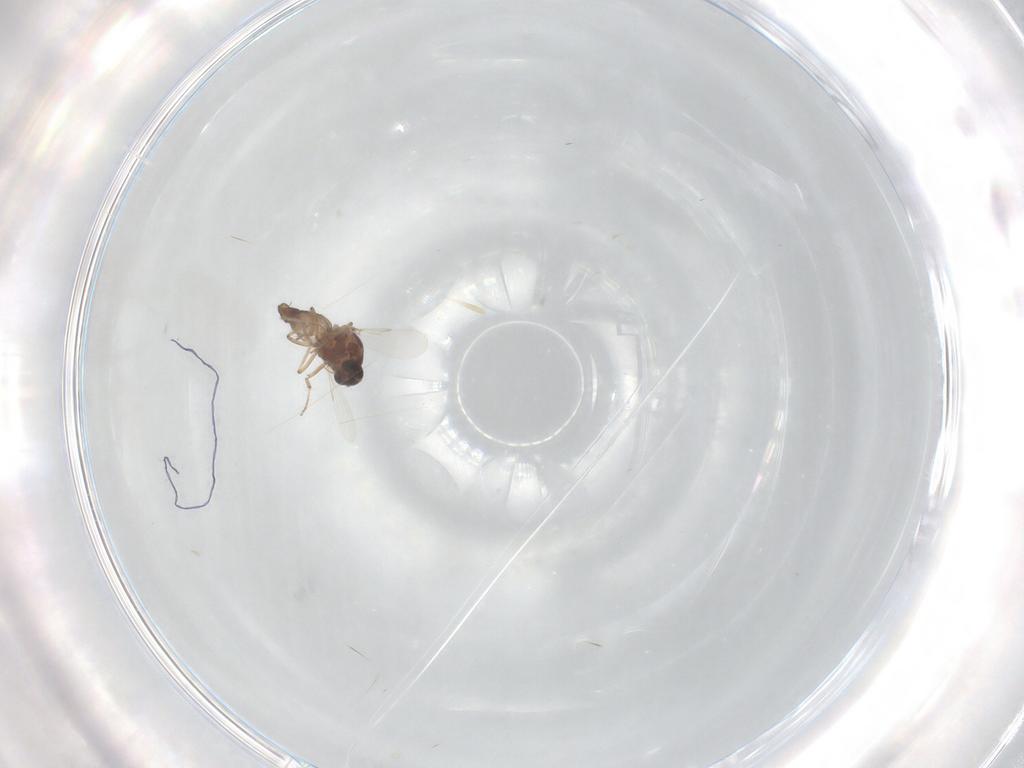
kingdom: Animalia
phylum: Arthropoda
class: Insecta
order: Diptera
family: Ceratopogonidae
